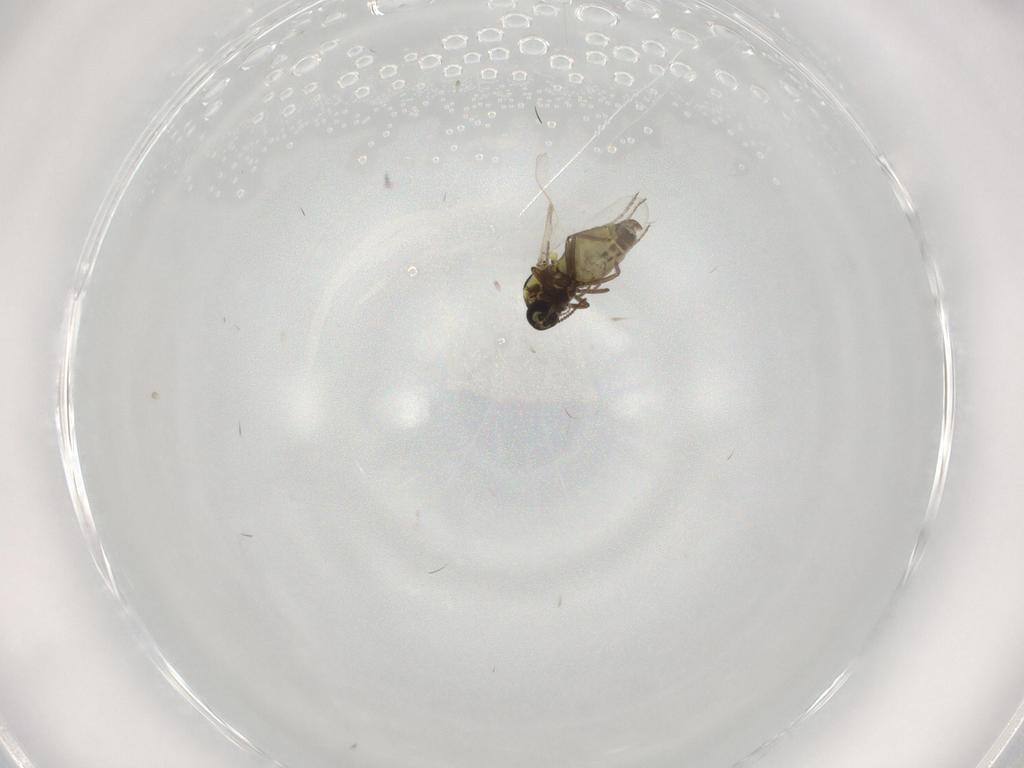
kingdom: Animalia
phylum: Arthropoda
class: Insecta
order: Diptera
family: Ceratopogonidae
